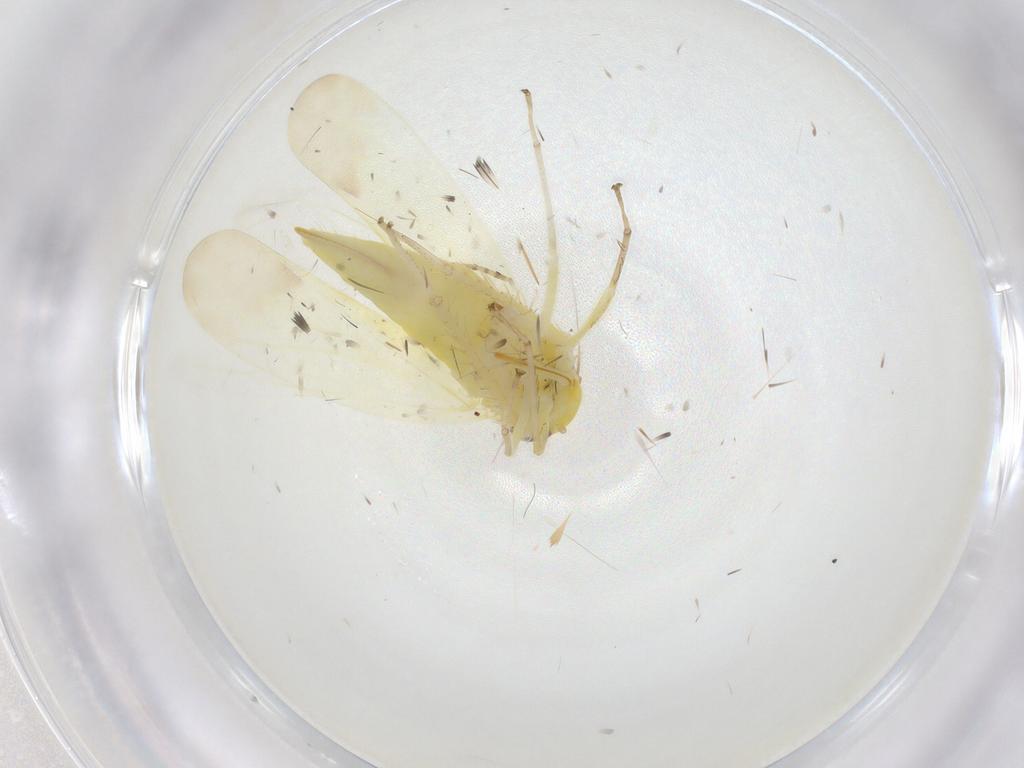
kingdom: Animalia
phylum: Arthropoda
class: Insecta
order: Hemiptera
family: Cicadellidae
